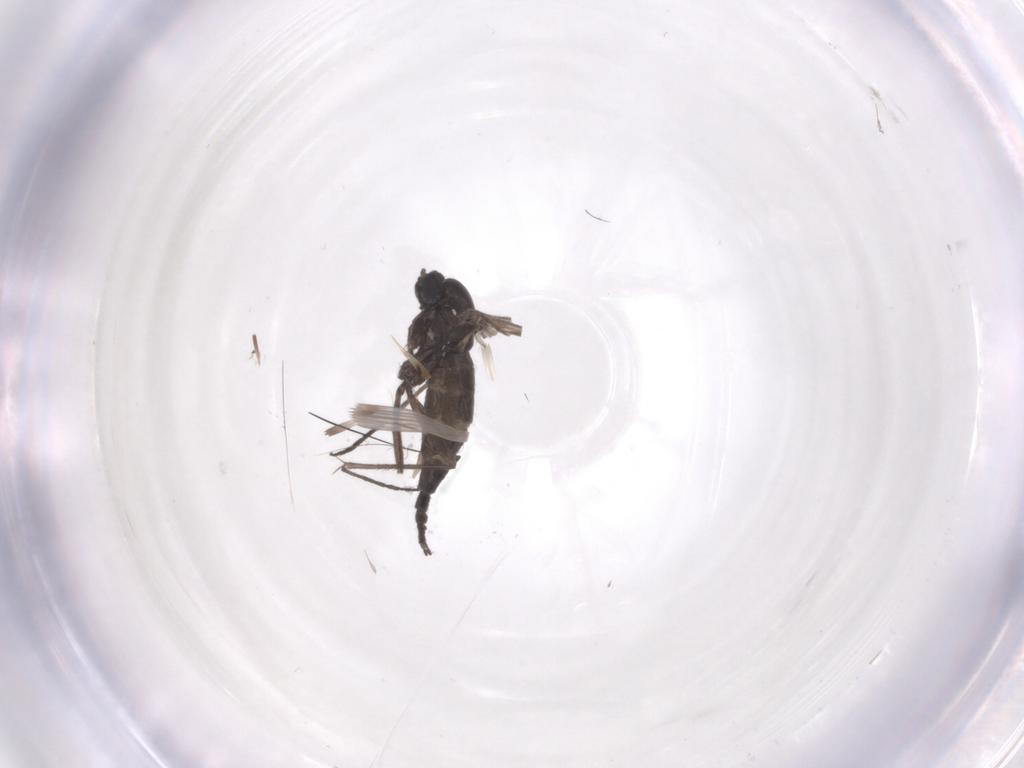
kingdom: Animalia
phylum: Arthropoda
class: Insecta
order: Diptera
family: Sciaridae
